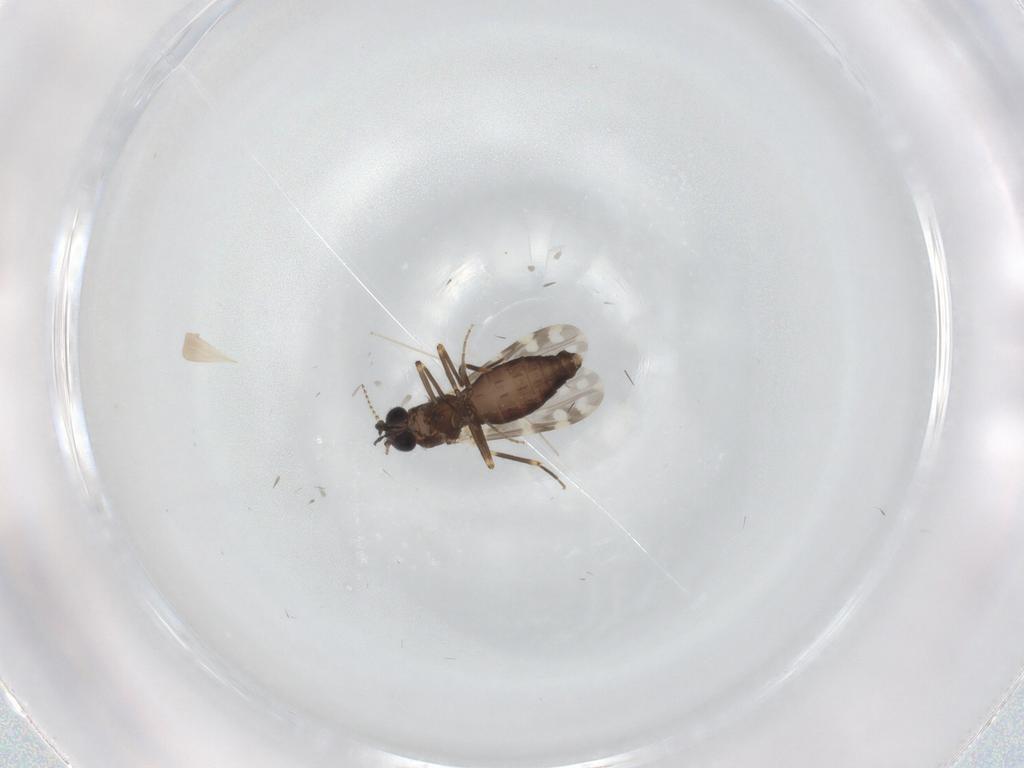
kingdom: Animalia
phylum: Arthropoda
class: Insecta
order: Diptera
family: Ceratopogonidae
